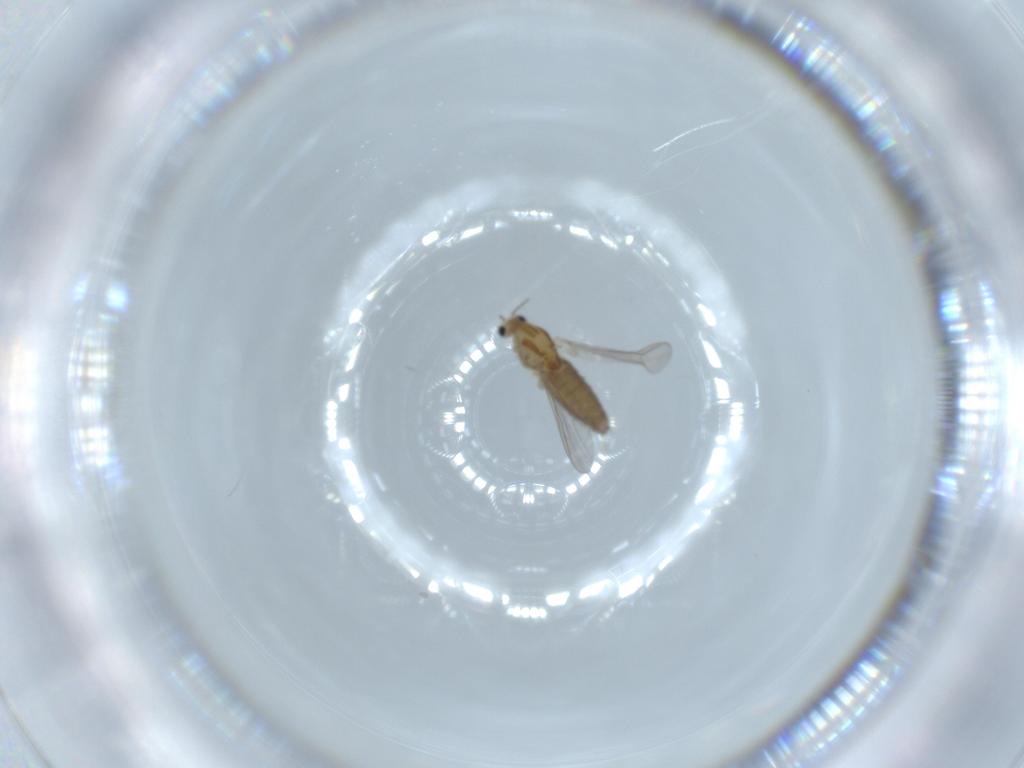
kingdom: Animalia
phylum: Arthropoda
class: Insecta
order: Diptera
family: Chironomidae
